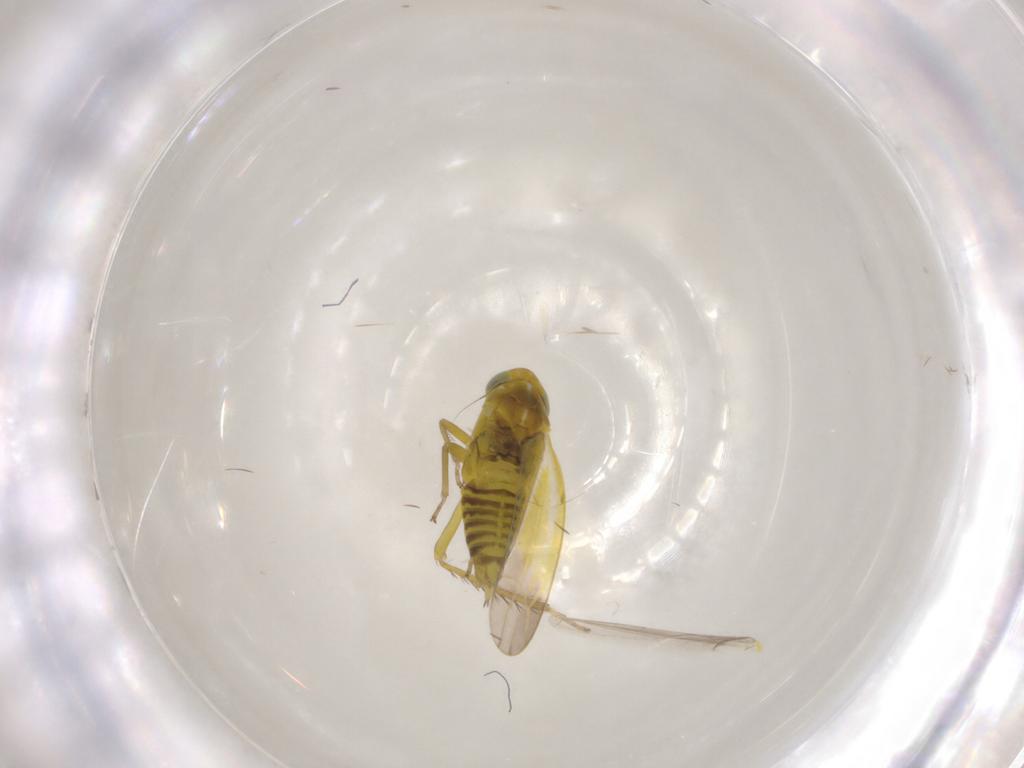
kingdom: Animalia
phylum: Arthropoda
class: Insecta
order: Hemiptera
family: Cicadellidae
